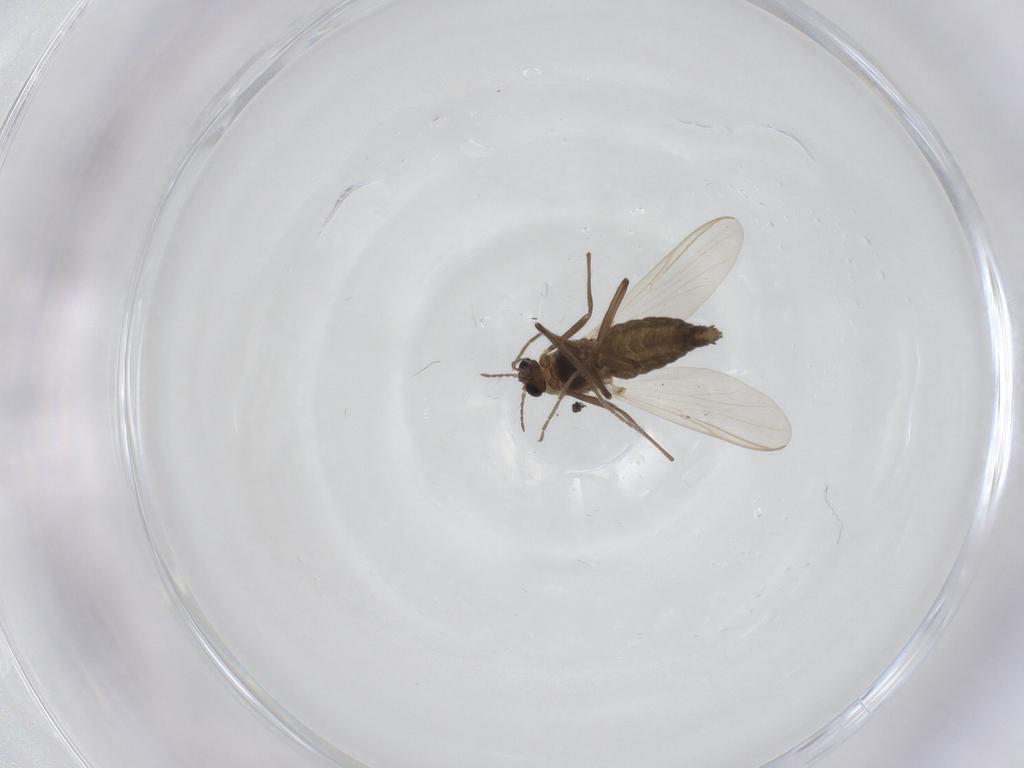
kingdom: Animalia
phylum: Arthropoda
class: Insecta
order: Diptera
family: Chironomidae
